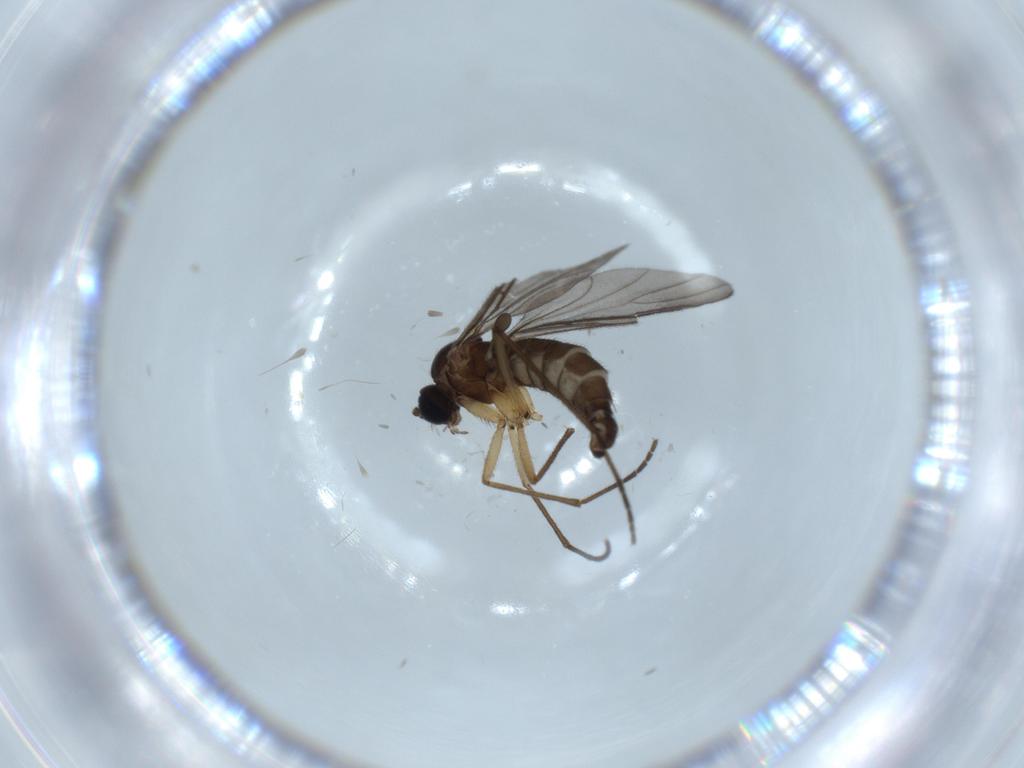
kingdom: Animalia
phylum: Arthropoda
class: Insecta
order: Diptera
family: Sciaridae
